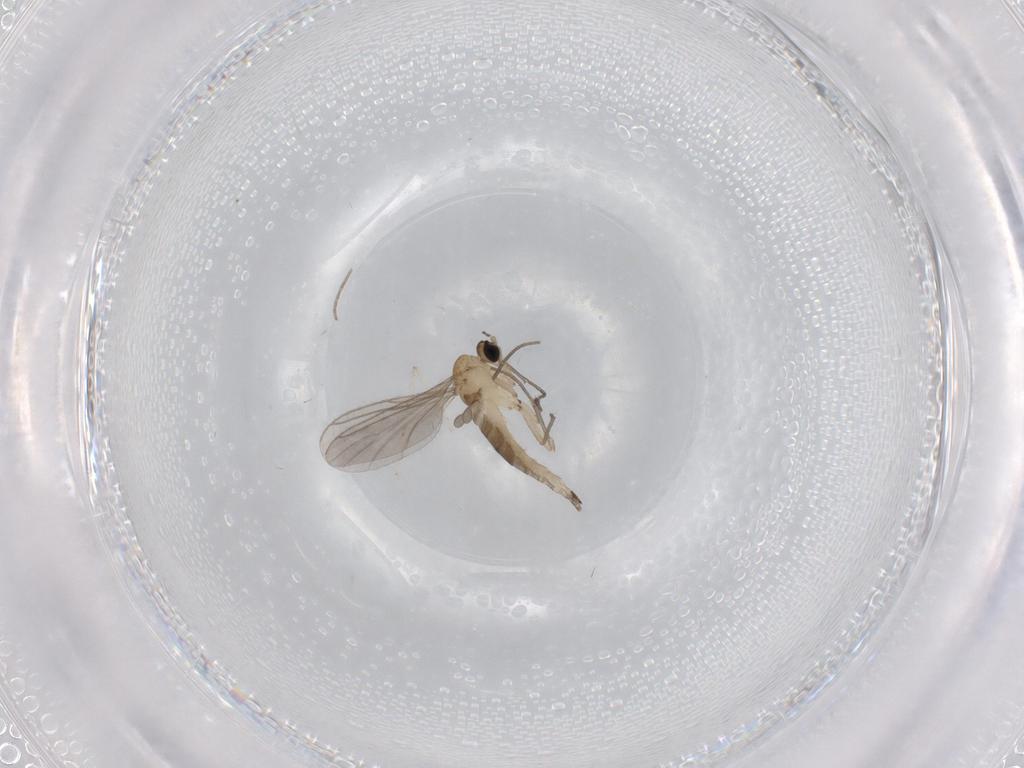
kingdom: Animalia
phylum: Arthropoda
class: Insecta
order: Diptera
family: Sciaridae
